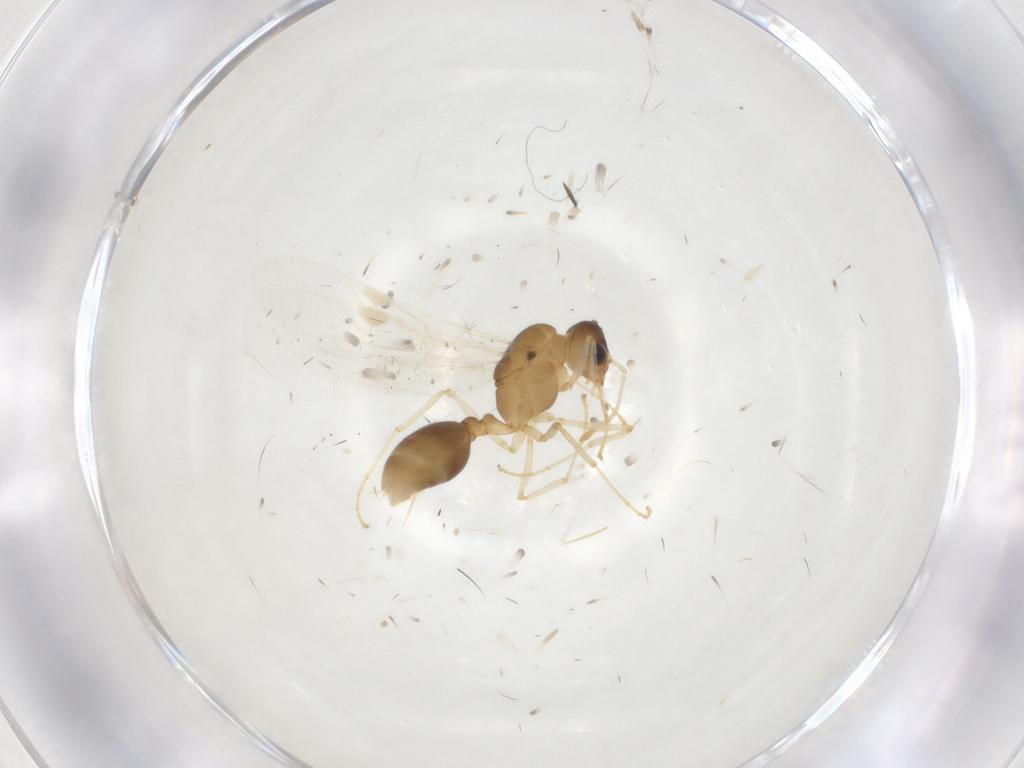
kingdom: Animalia
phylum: Arthropoda
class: Insecta
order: Hymenoptera
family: Formicidae
